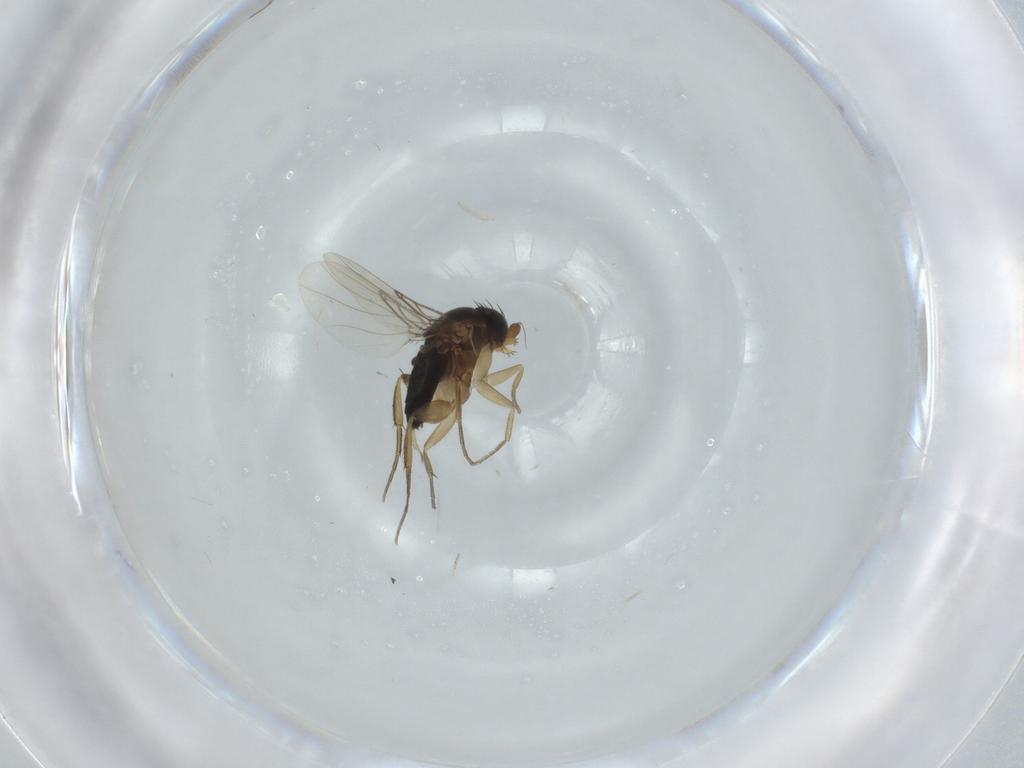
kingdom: Animalia
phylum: Arthropoda
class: Insecta
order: Diptera
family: Phoridae
